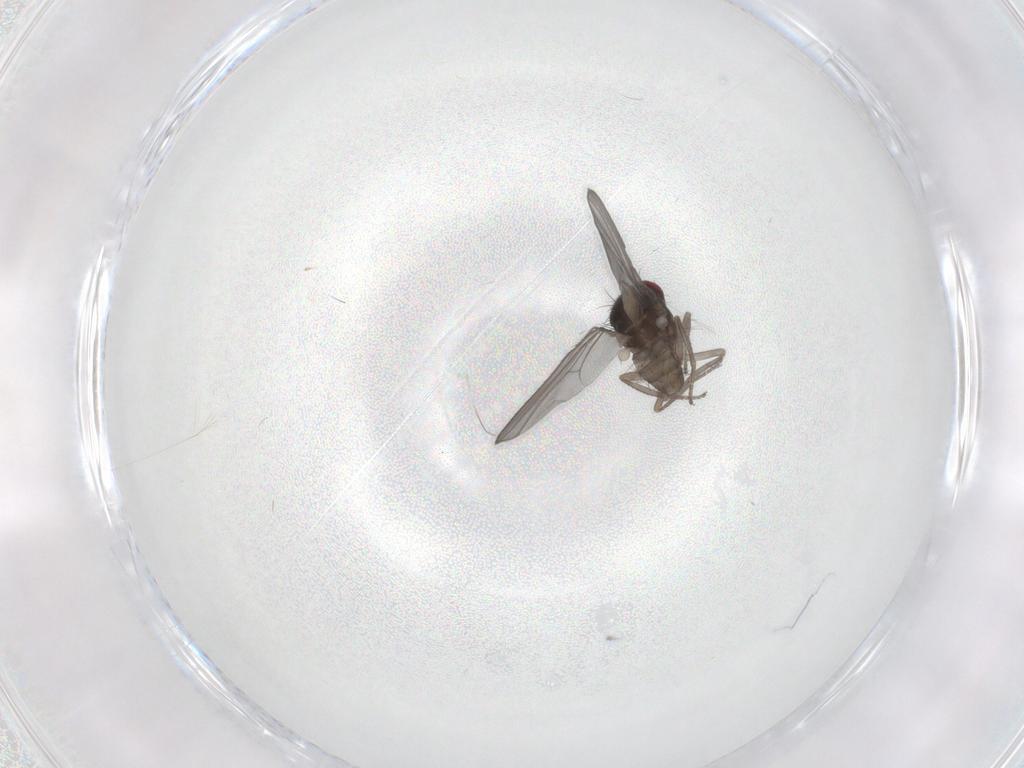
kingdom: Animalia
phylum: Arthropoda
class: Insecta
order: Diptera
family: Drosophilidae
